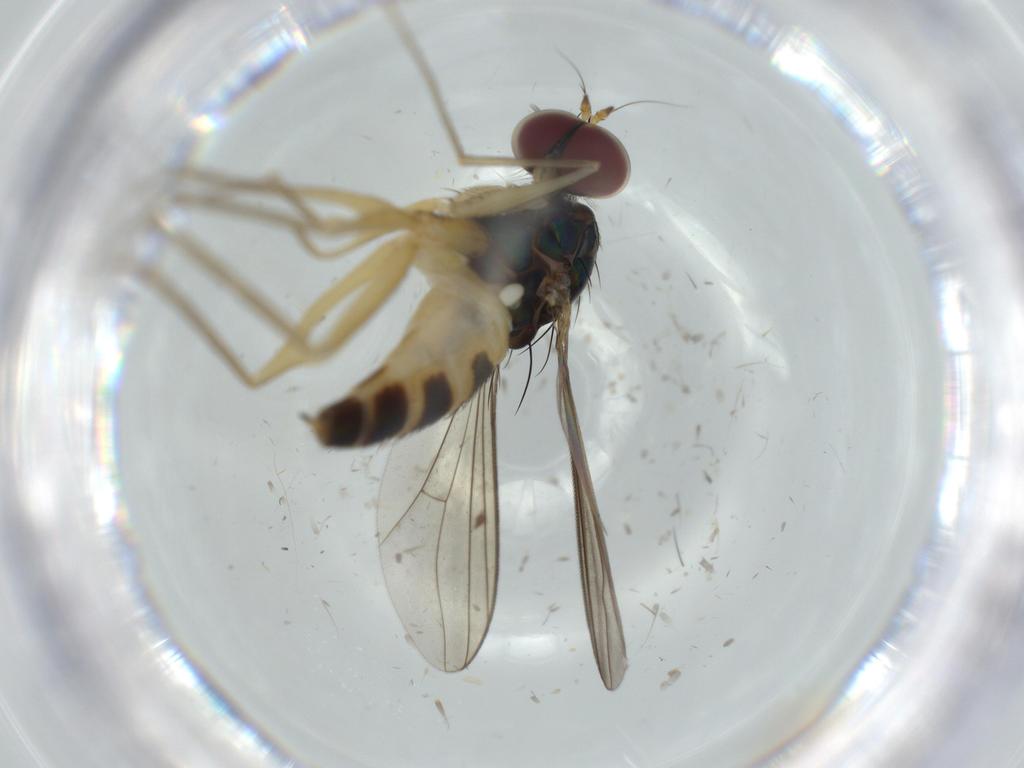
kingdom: Animalia
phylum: Arthropoda
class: Insecta
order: Diptera
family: Dolichopodidae
